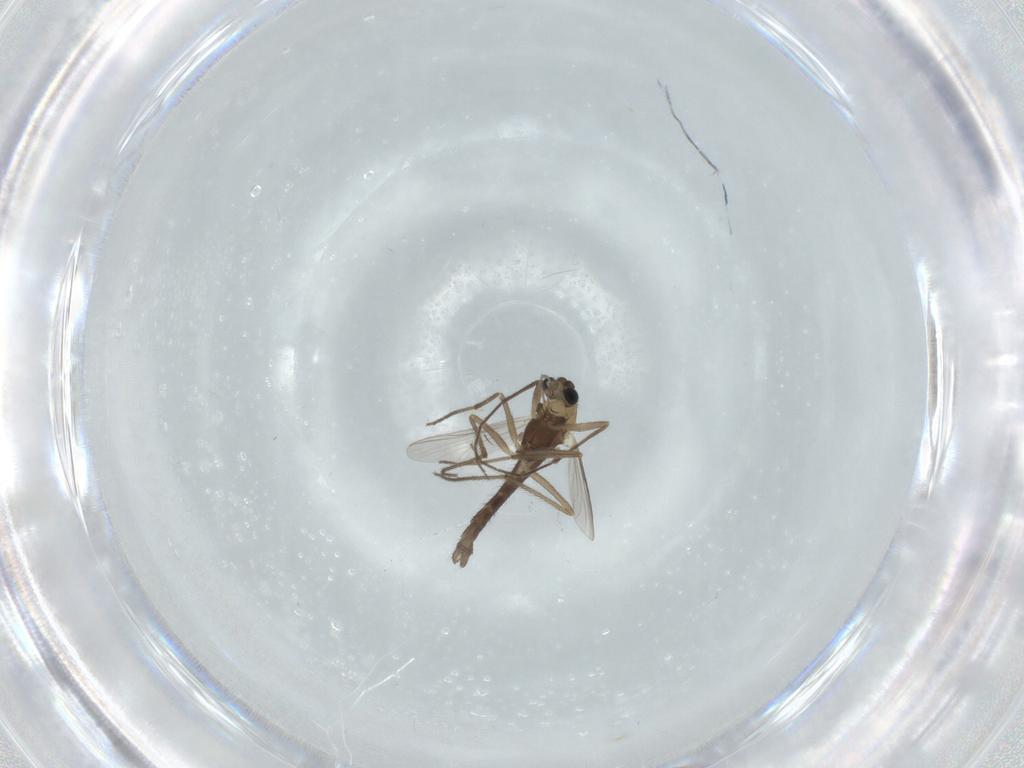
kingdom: Animalia
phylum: Arthropoda
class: Insecta
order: Diptera
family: Chironomidae
